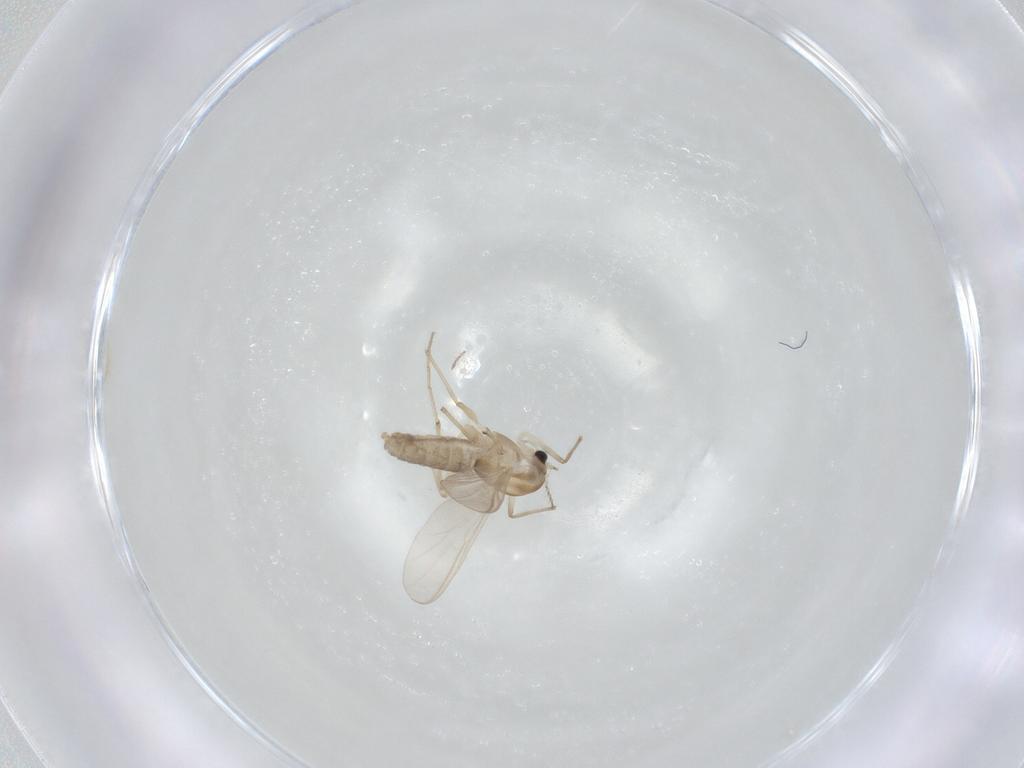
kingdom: Animalia
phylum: Arthropoda
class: Insecta
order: Diptera
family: Chironomidae
